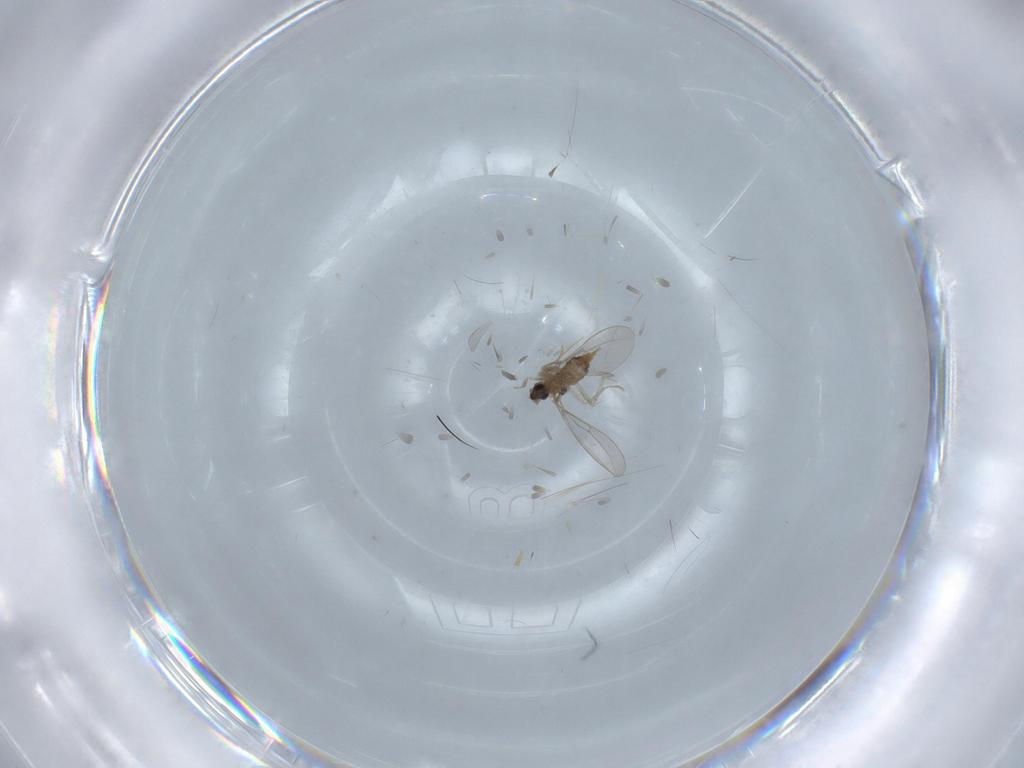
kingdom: Animalia
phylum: Arthropoda
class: Insecta
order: Diptera
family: Cecidomyiidae
